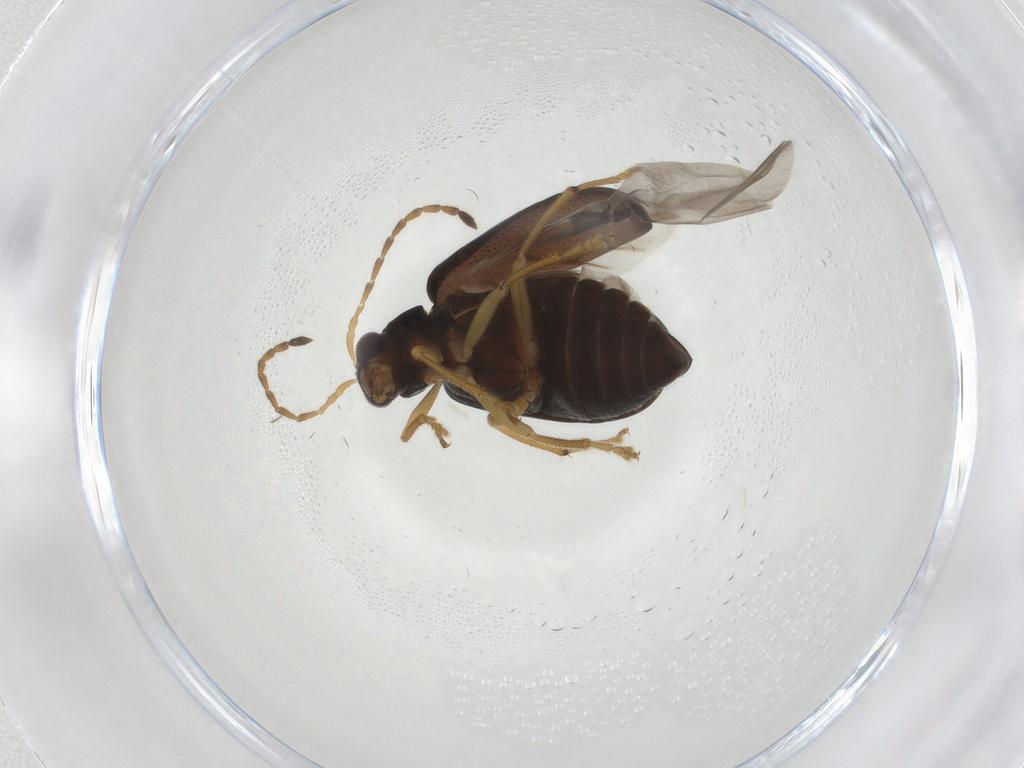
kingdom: Animalia
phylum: Arthropoda
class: Insecta
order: Coleoptera
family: Chrysomelidae
